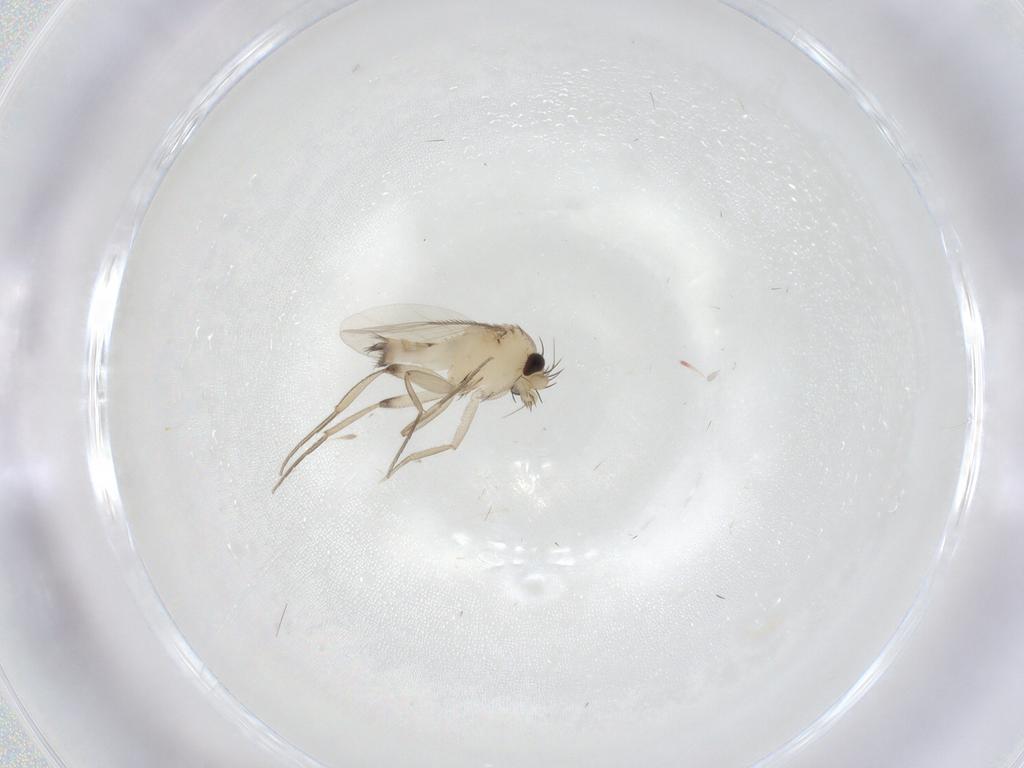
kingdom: Animalia
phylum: Arthropoda
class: Insecta
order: Diptera
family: Phoridae
